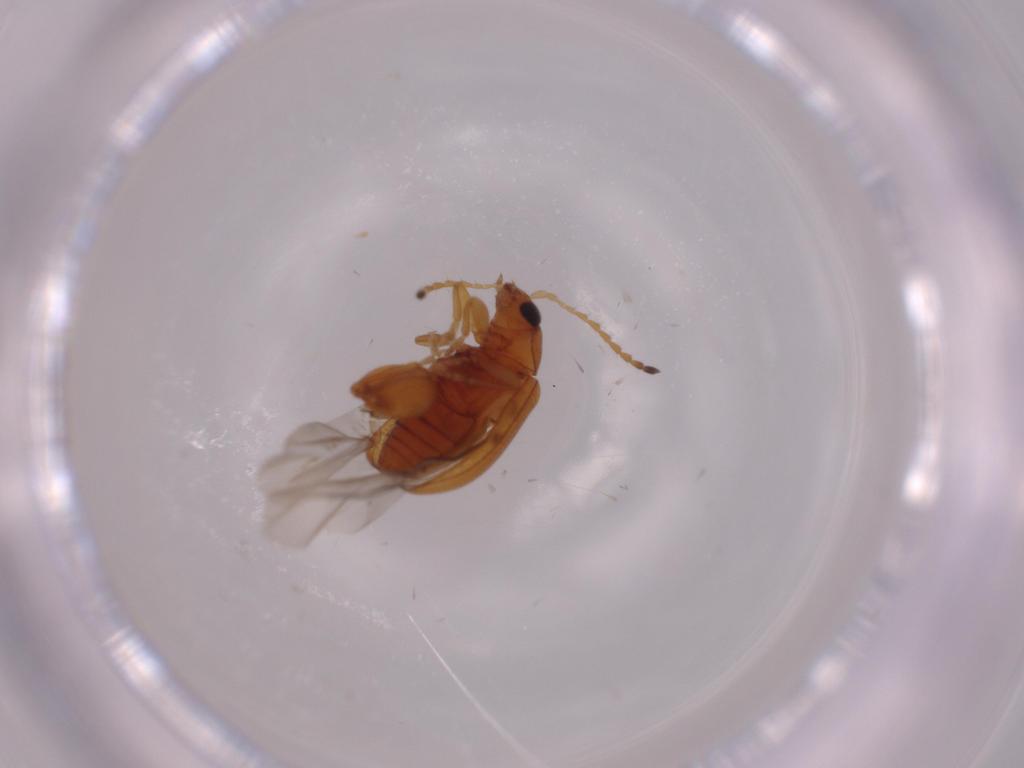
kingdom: Animalia
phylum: Arthropoda
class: Insecta
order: Coleoptera
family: Chrysomelidae
